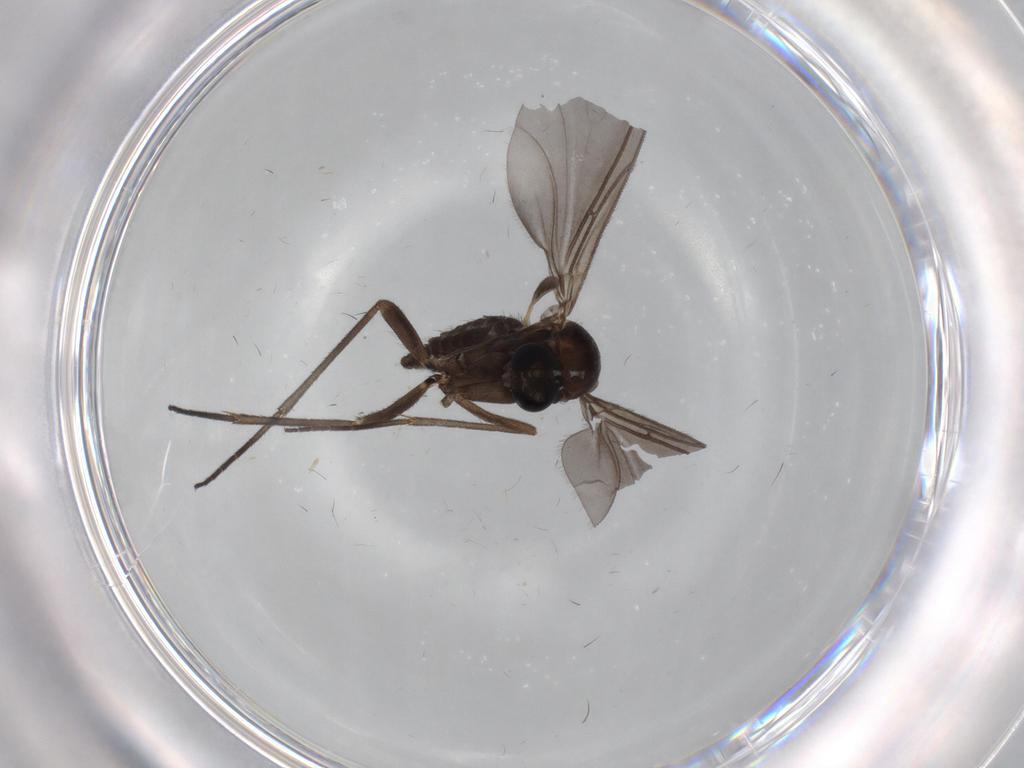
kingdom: Animalia
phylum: Arthropoda
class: Insecta
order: Diptera
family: Sciaridae
